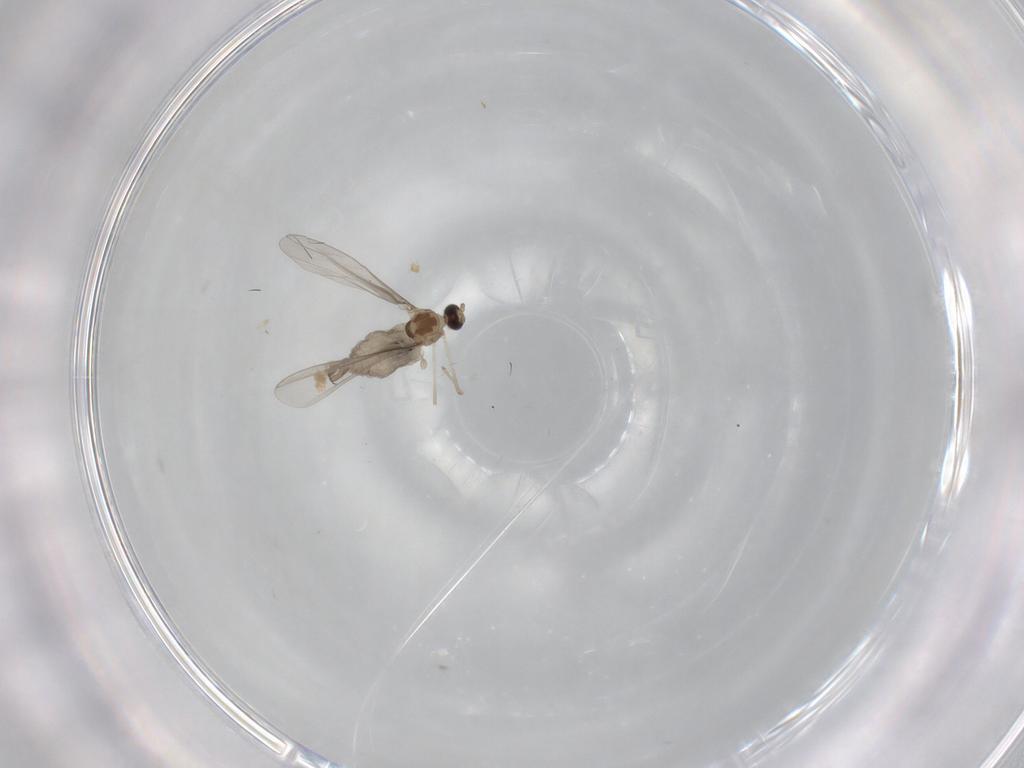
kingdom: Animalia
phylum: Arthropoda
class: Insecta
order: Diptera
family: Cecidomyiidae
